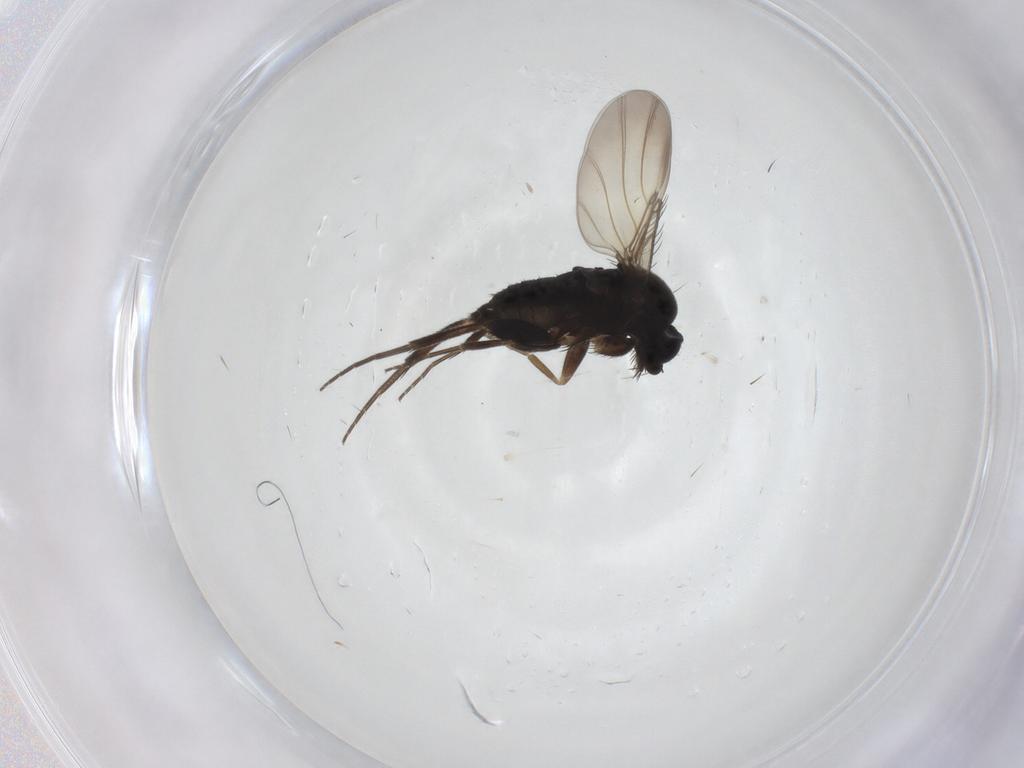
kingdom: Animalia
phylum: Arthropoda
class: Insecta
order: Diptera
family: Phoridae
